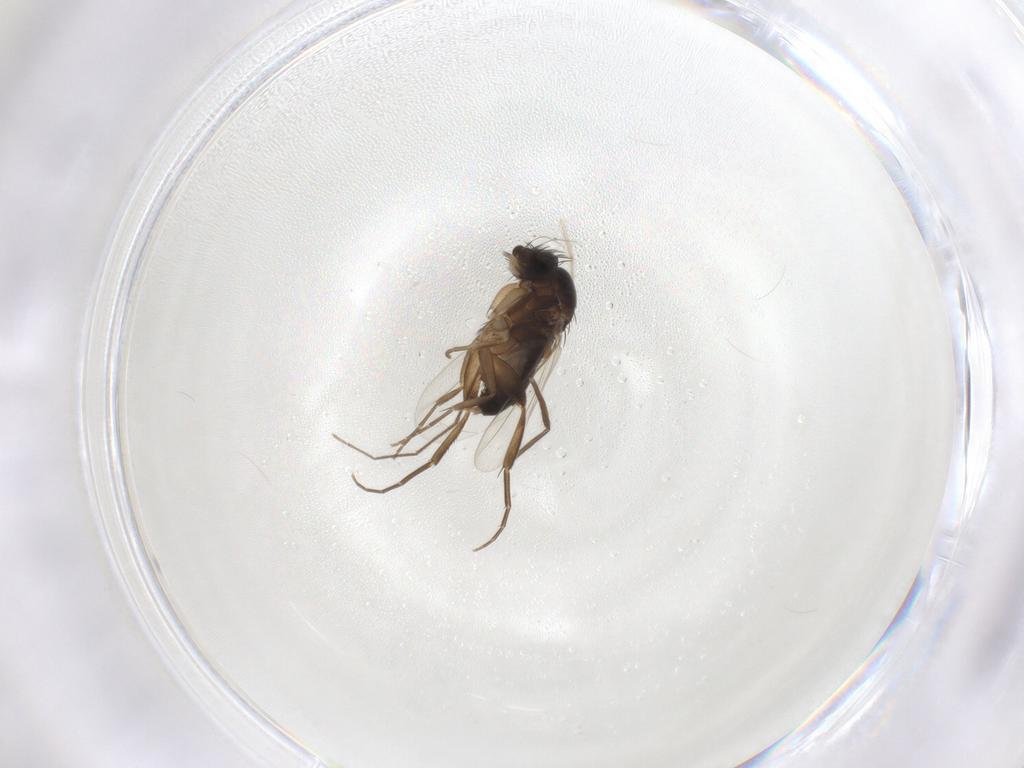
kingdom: Animalia
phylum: Arthropoda
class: Insecta
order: Diptera
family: Phoridae
